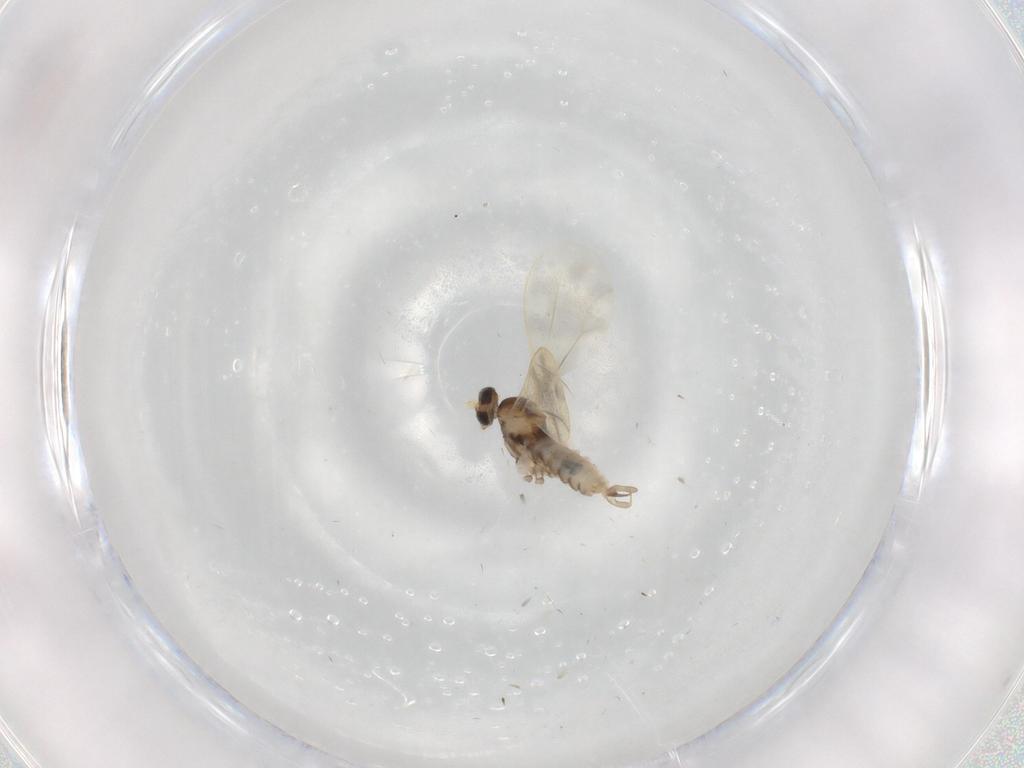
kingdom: Animalia
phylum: Arthropoda
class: Insecta
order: Diptera
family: Cecidomyiidae
